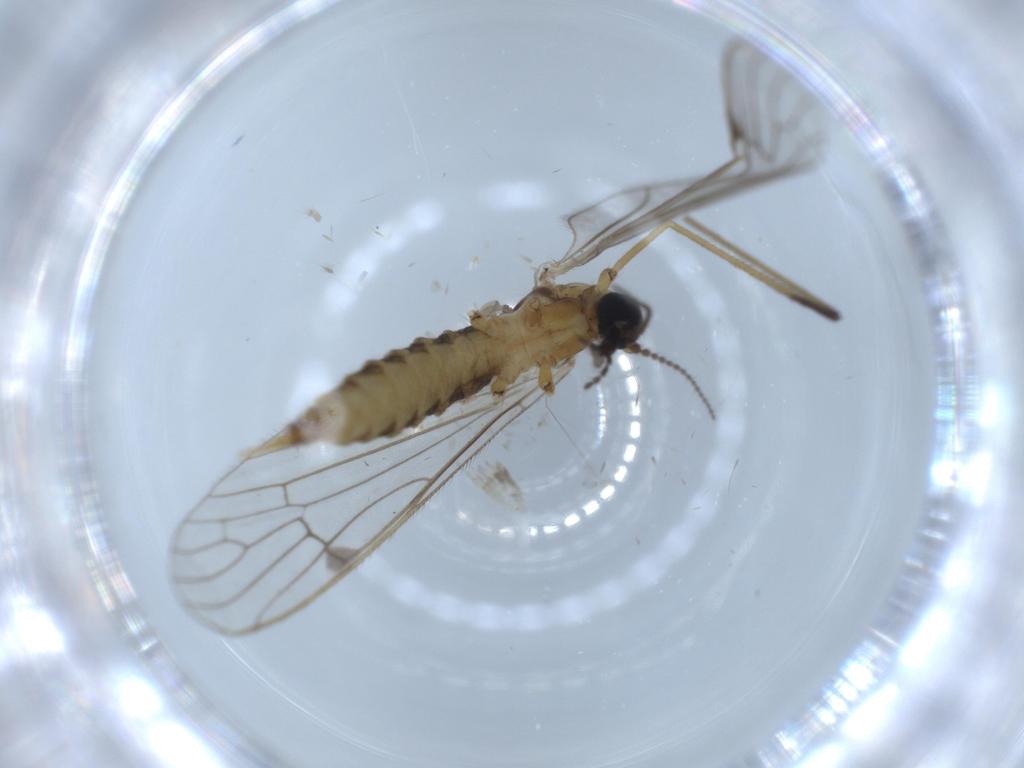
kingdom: Animalia
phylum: Arthropoda
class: Insecta
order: Diptera
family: Limoniidae
